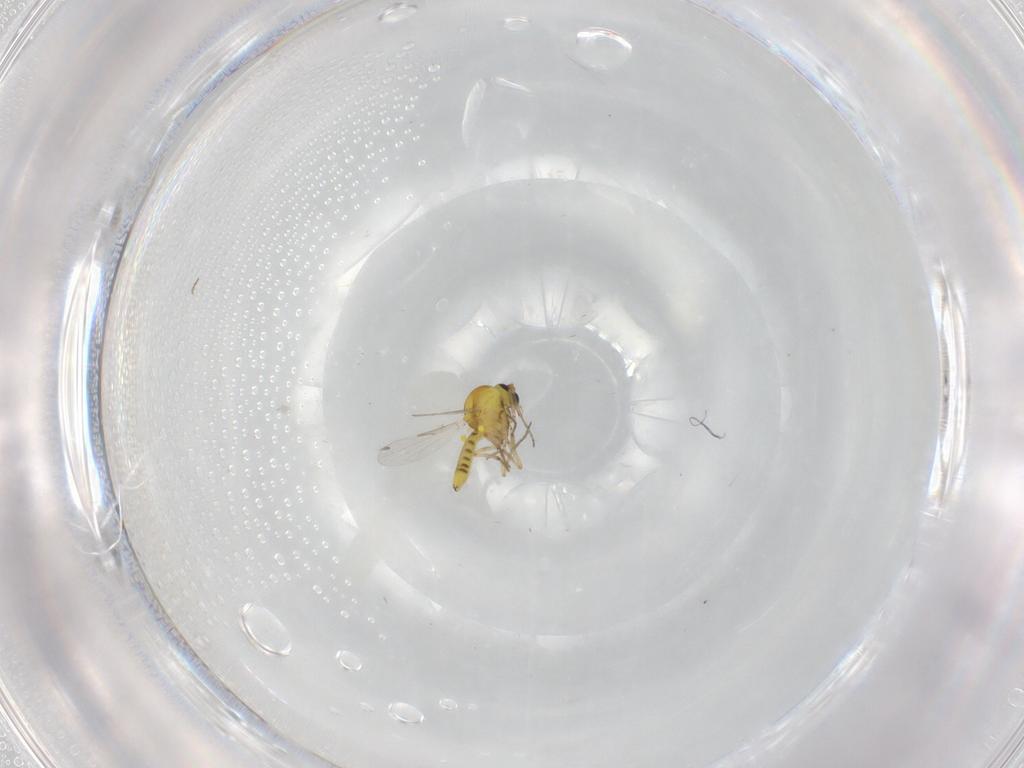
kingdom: Animalia
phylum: Arthropoda
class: Insecta
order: Diptera
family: Ceratopogonidae
